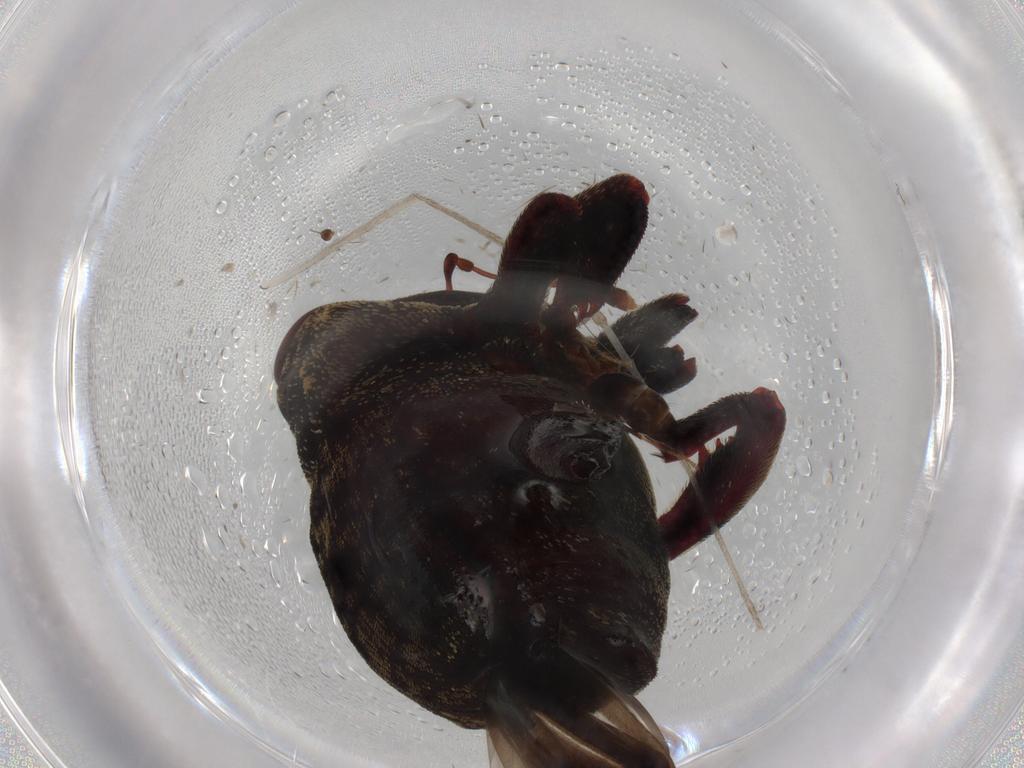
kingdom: Animalia
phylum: Arthropoda
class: Insecta
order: Coleoptera
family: Curculionidae
